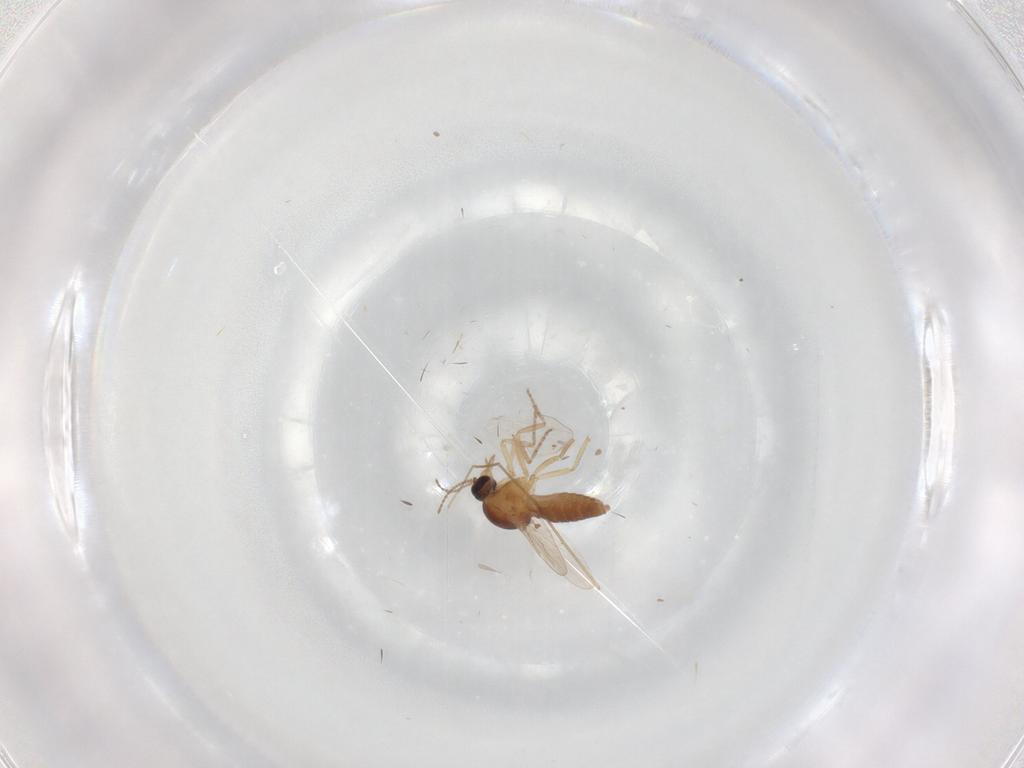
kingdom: Animalia
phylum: Arthropoda
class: Insecta
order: Diptera
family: Ceratopogonidae
